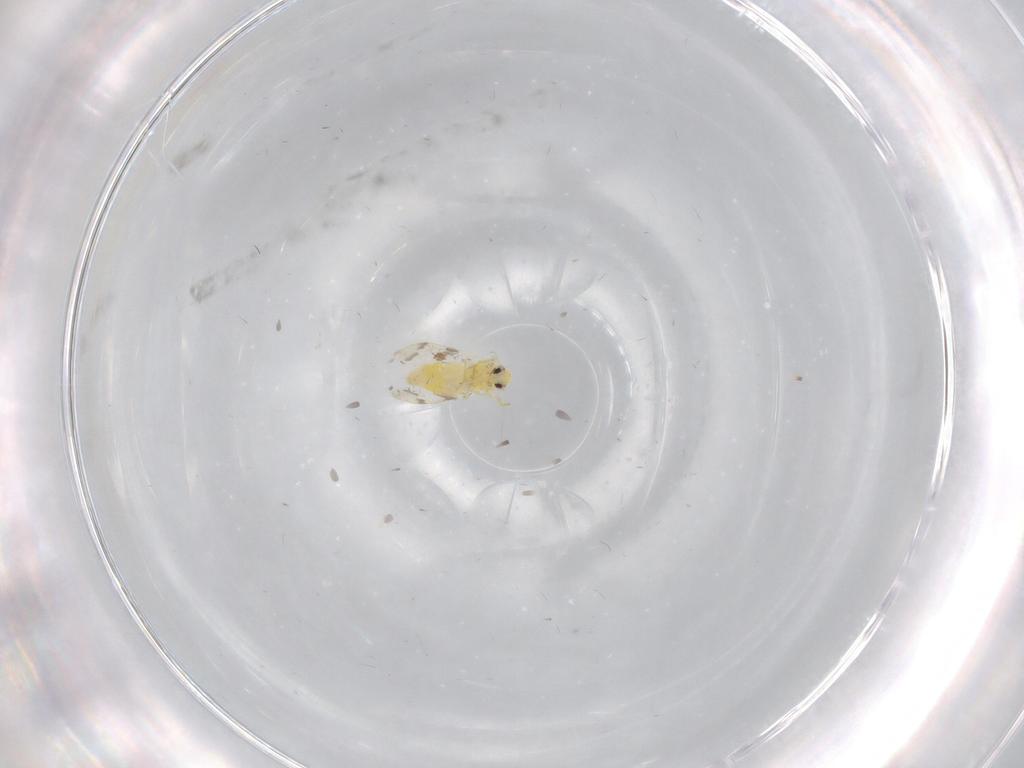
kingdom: Animalia
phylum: Arthropoda
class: Insecta
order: Hemiptera
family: Aleyrodidae
